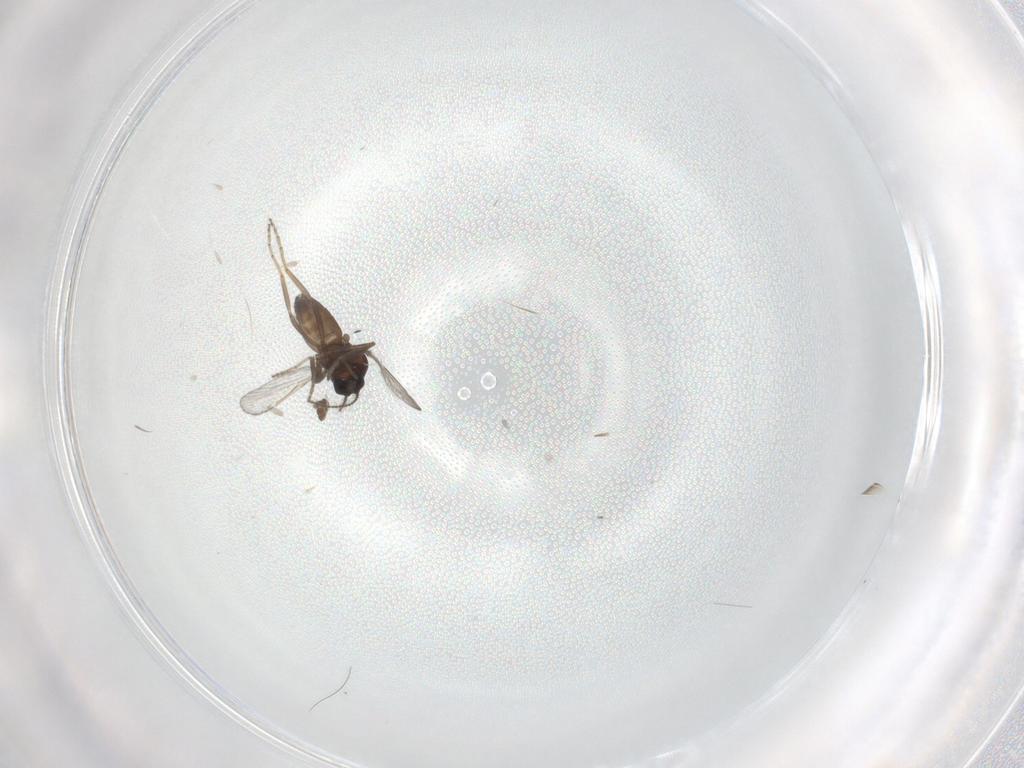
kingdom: Animalia
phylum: Arthropoda
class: Insecta
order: Diptera
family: Ceratopogonidae
